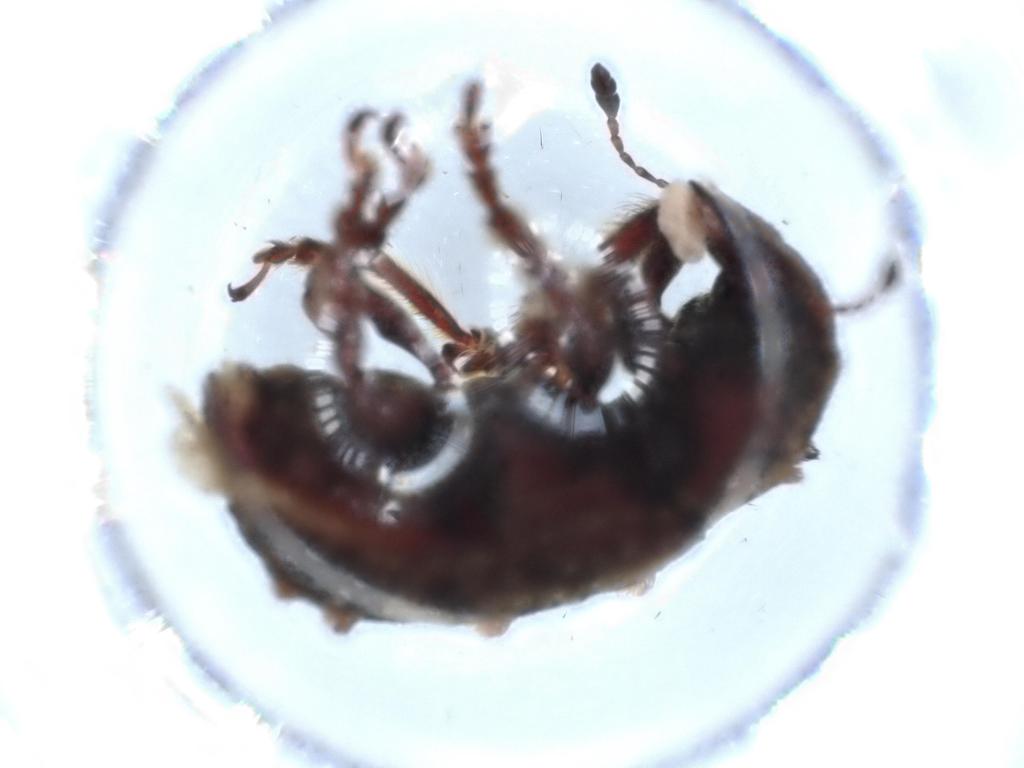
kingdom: Animalia
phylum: Arthropoda
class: Insecta
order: Coleoptera
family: Anthribidae
